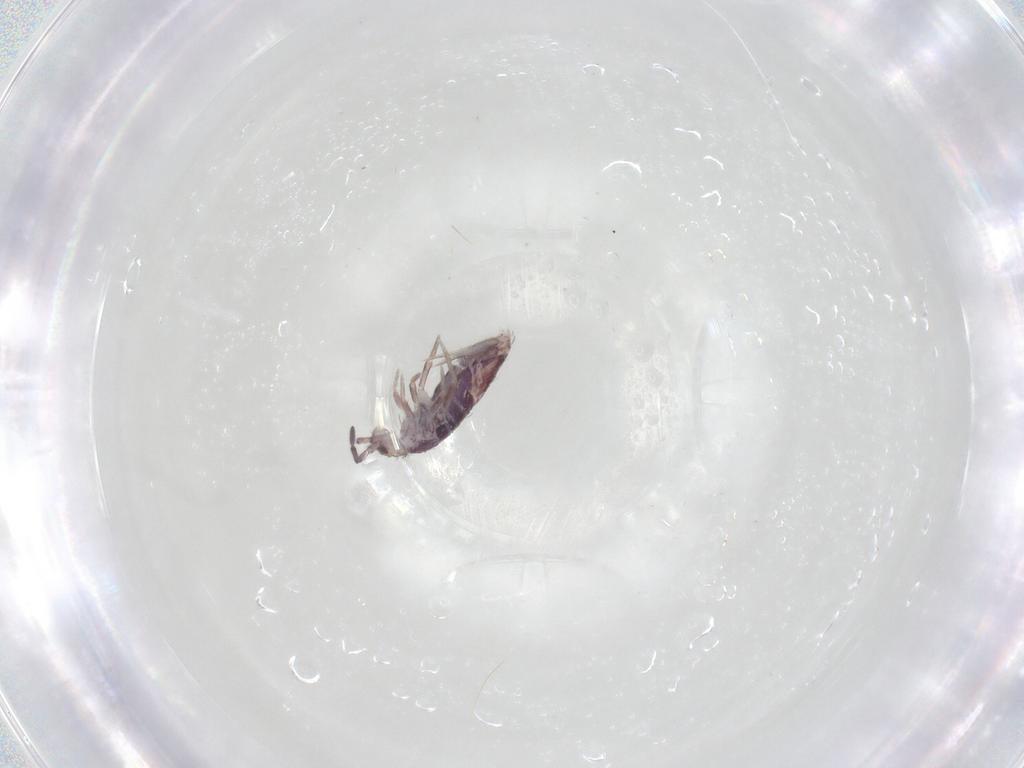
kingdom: Animalia
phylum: Arthropoda
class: Collembola
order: Entomobryomorpha
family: Entomobryidae
